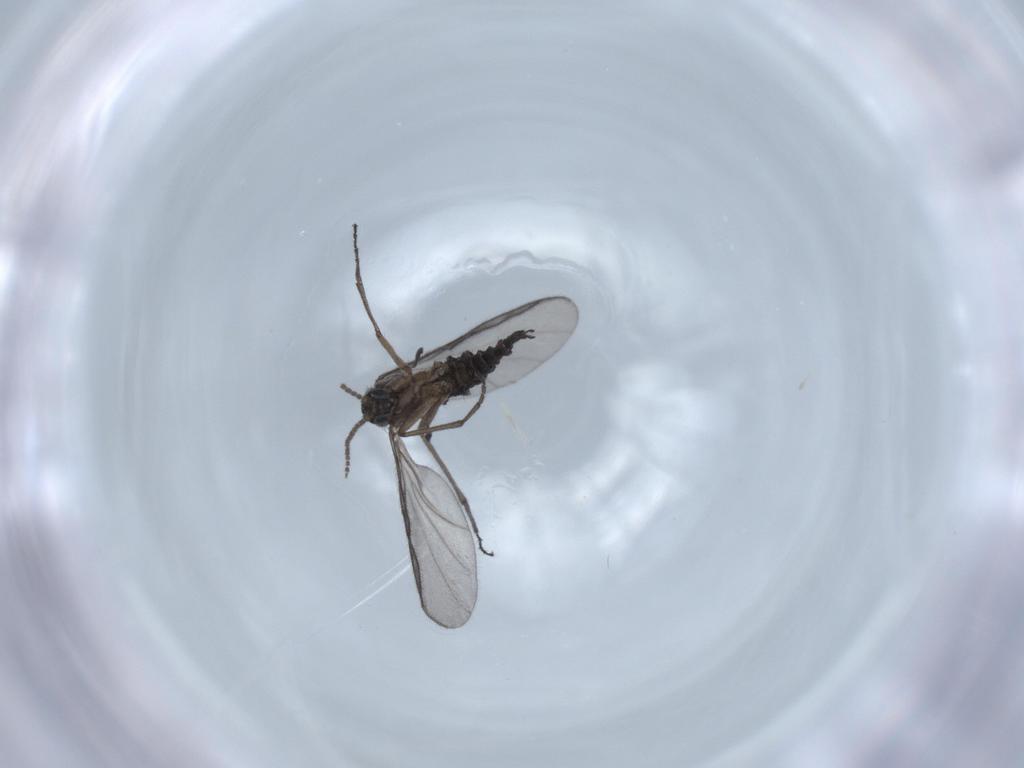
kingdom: Animalia
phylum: Arthropoda
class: Insecta
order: Diptera
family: Sciaridae
